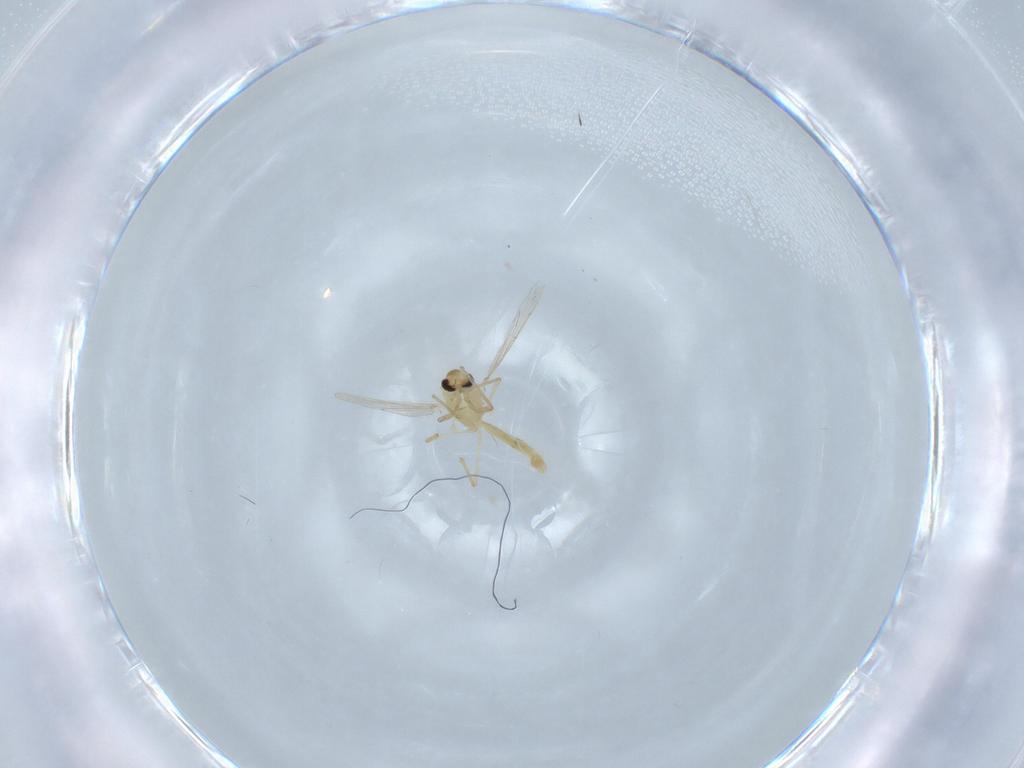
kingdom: Animalia
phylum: Arthropoda
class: Insecta
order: Diptera
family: Chironomidae
